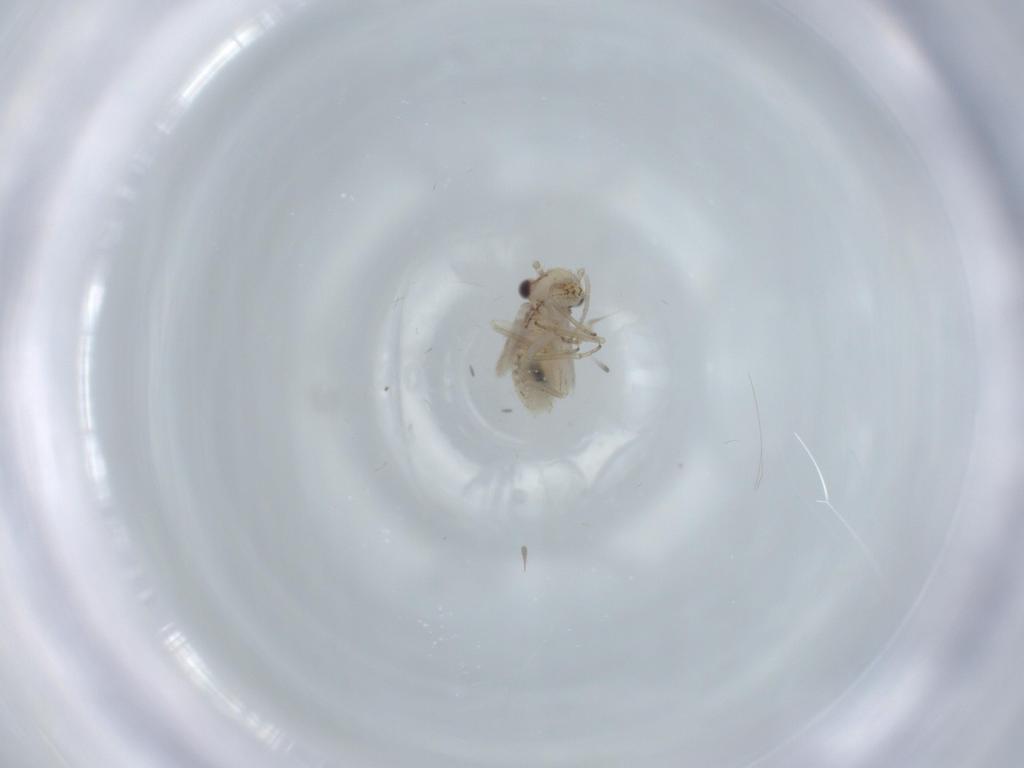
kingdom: Animalia
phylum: Arthropoda
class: Insecta
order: Psocodea
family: Lachesillidae
